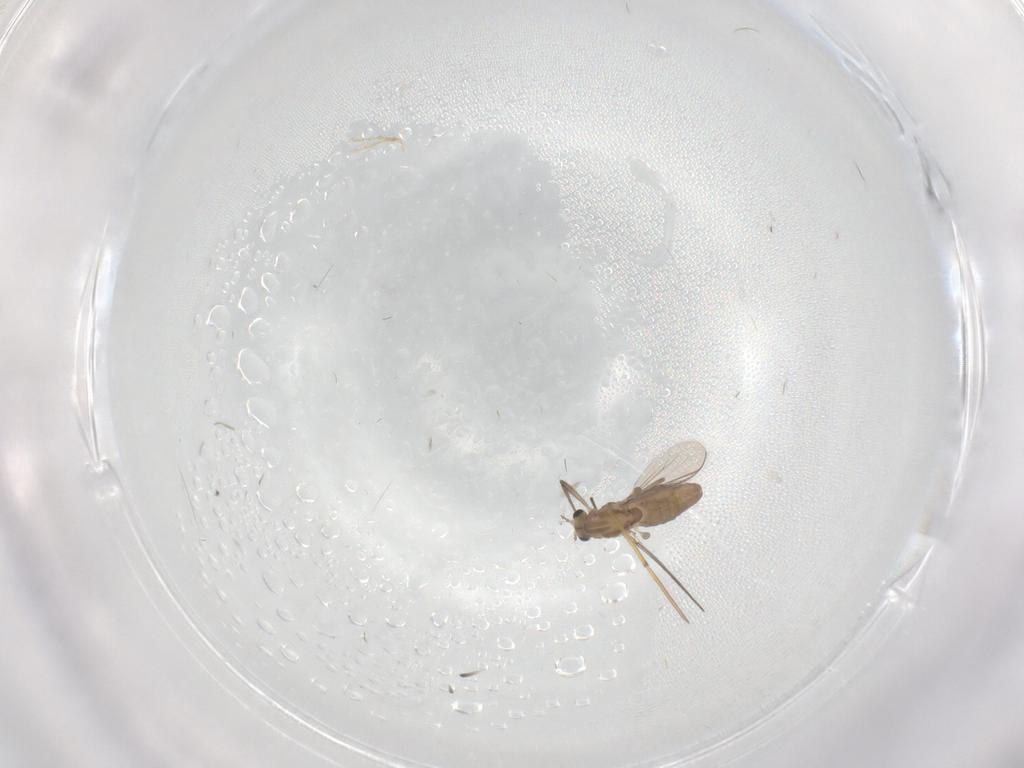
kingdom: Animalia
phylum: Arthropoda
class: Insecta
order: Diptera
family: Chironomidae
